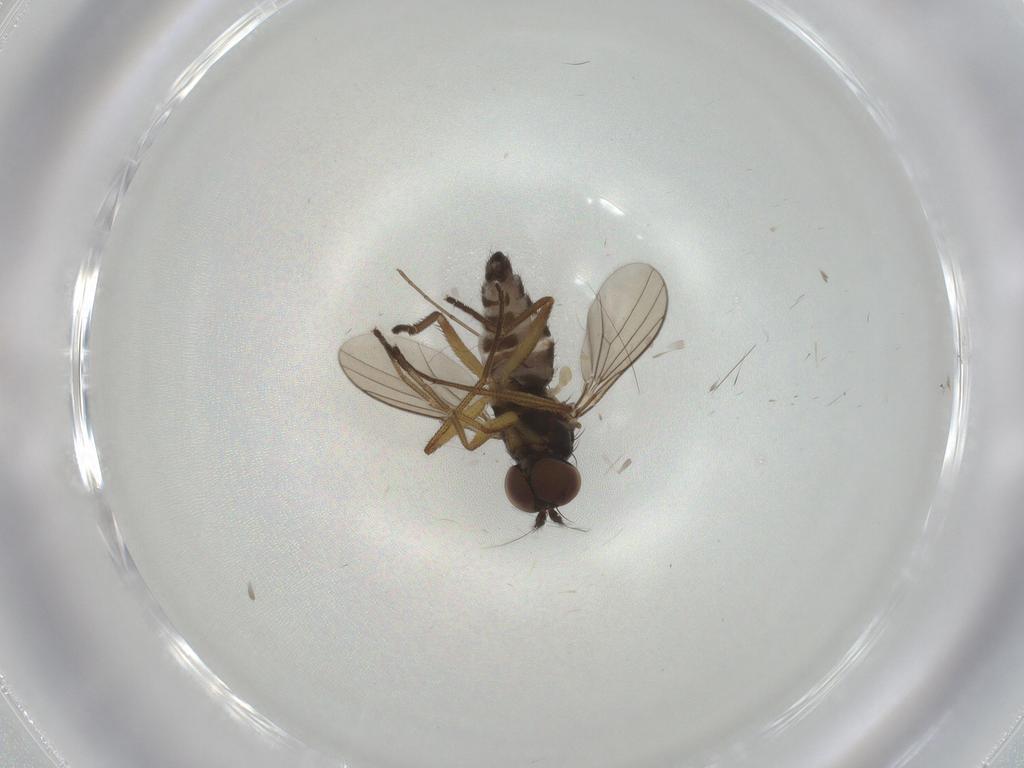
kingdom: Animalia
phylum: Arthropoda
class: Insecta
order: Diptera
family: Dolichopodidae
